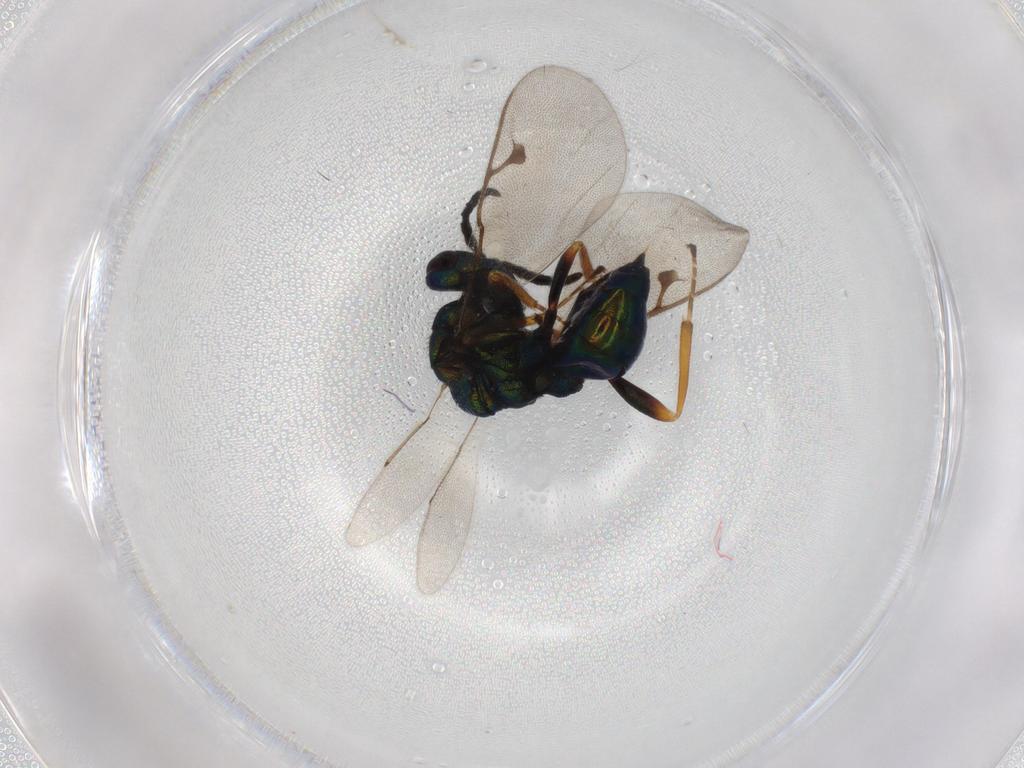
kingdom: Animalia
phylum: Arthropoda
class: Insecta
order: Hymenoptera
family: Pteromalidae
